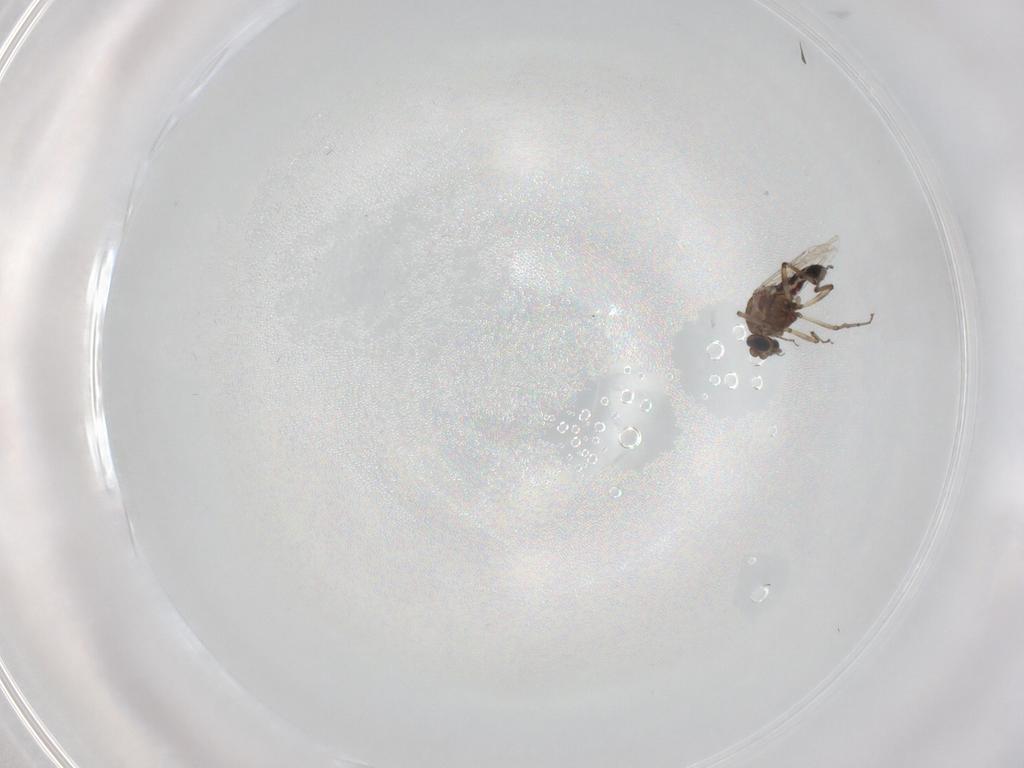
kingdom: Animalia
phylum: Arthropoda
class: Insecta
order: Diptera
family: Ceratopogonidae
